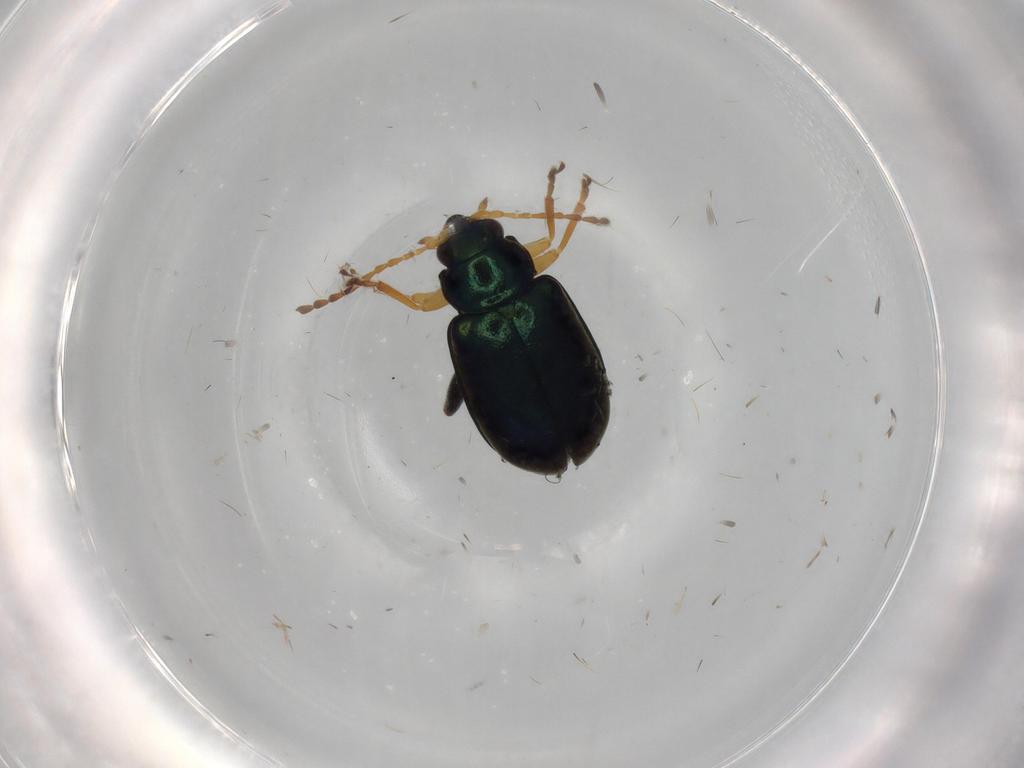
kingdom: Animalia
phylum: Arthropoda
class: Insecta
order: Coleoptera
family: Chrysomelidae
